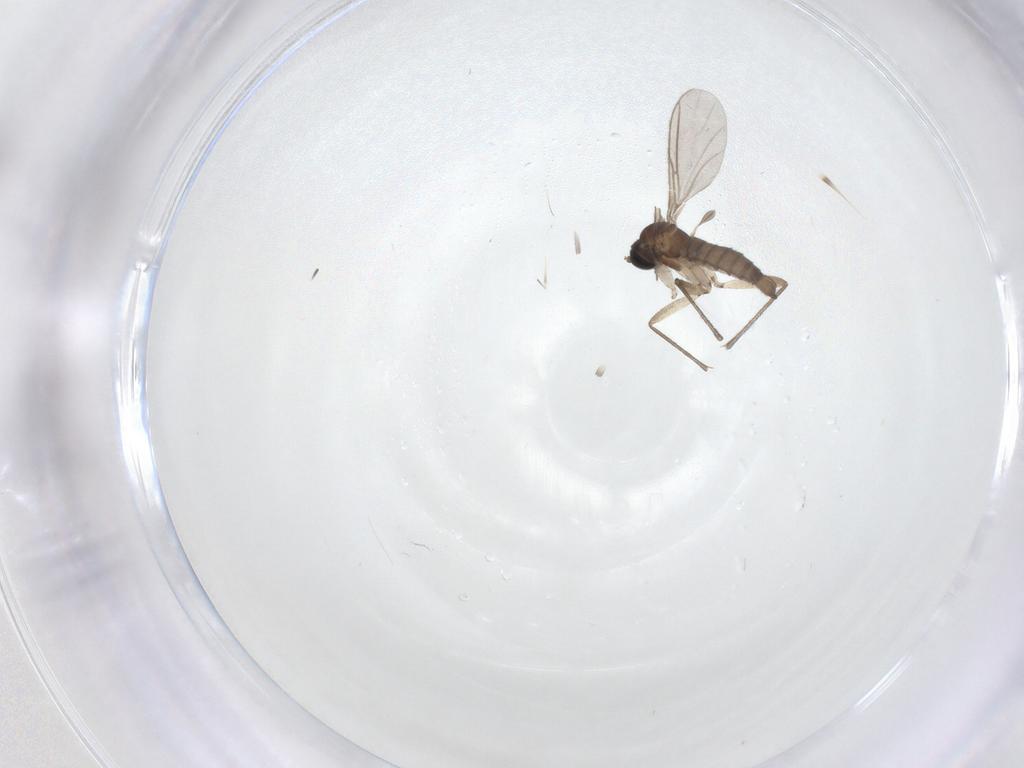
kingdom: Animalia
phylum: Arthropoda
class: Insecta
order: Diptera
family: Sciaridae
